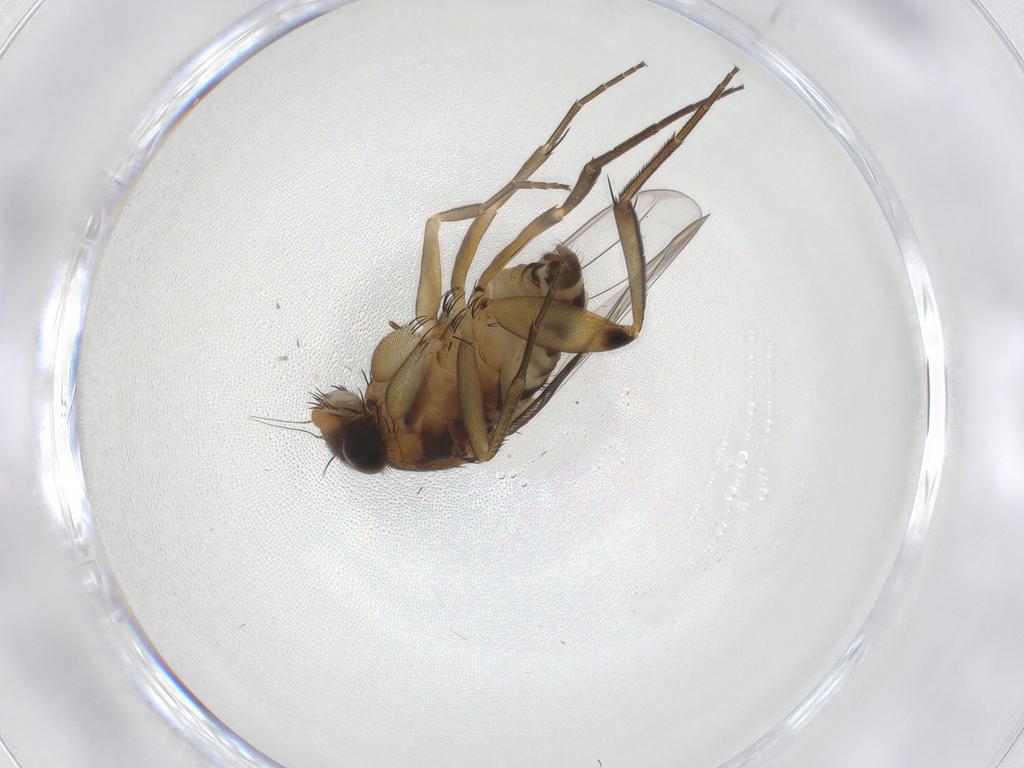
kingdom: Animalia
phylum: Arthropoda
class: Insecta
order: Diptera
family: Phoridae
